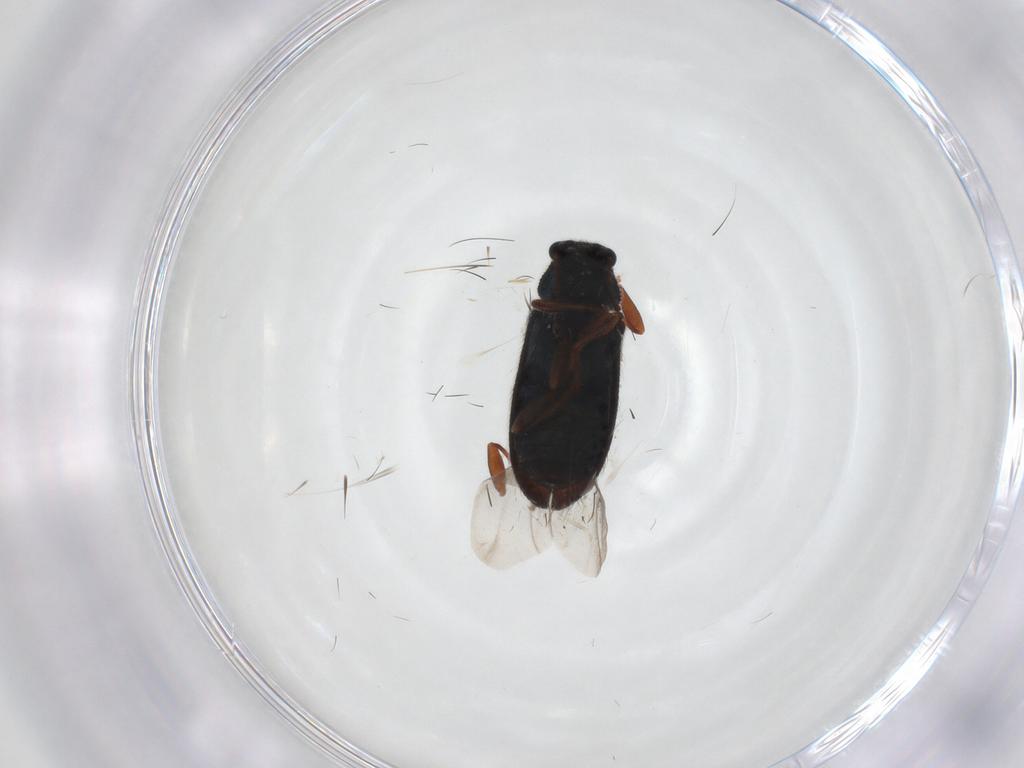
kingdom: Animalia
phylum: Arthropoda
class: Insecta
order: Coleoptera
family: Melyridae
